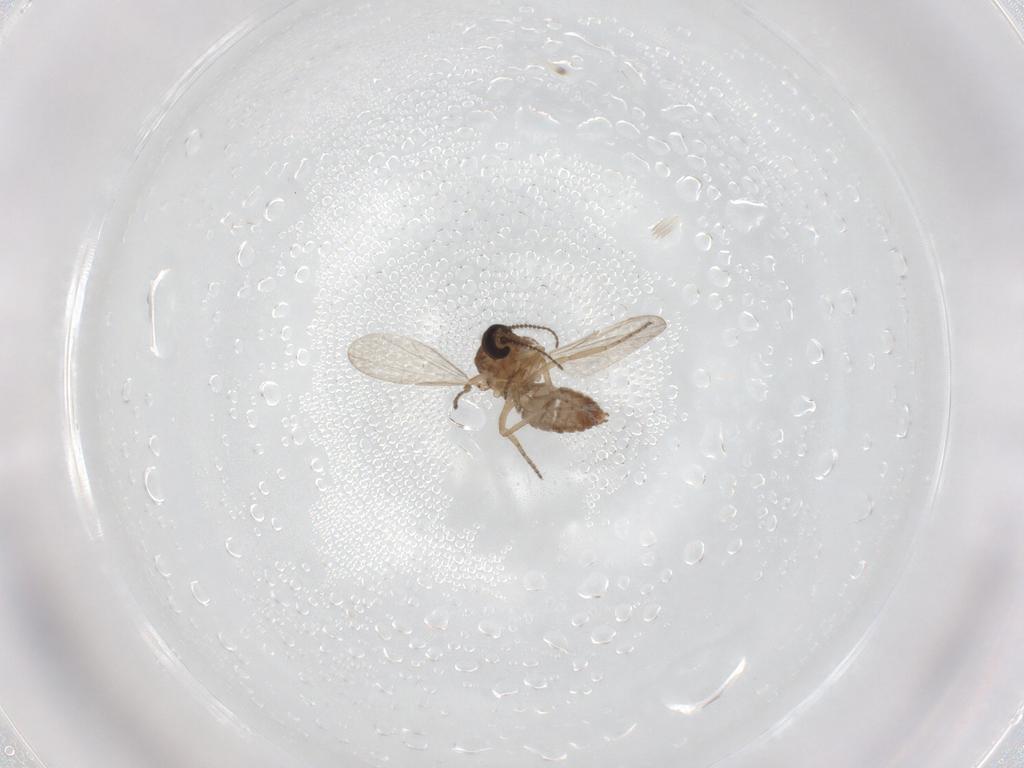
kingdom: Animalia
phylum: Arthropoda
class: Insecta
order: Diptera
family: Ceratopogonidae
